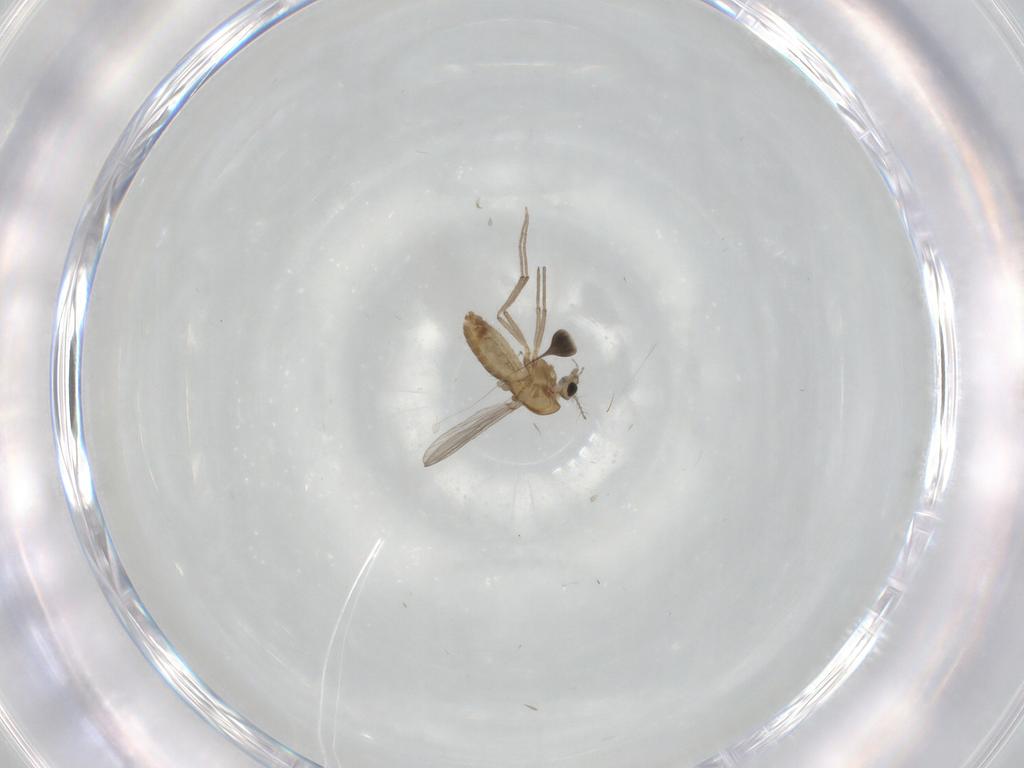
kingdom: Animalia
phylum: Arthropoda
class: Insecta
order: Diptera
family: Chironomidae
